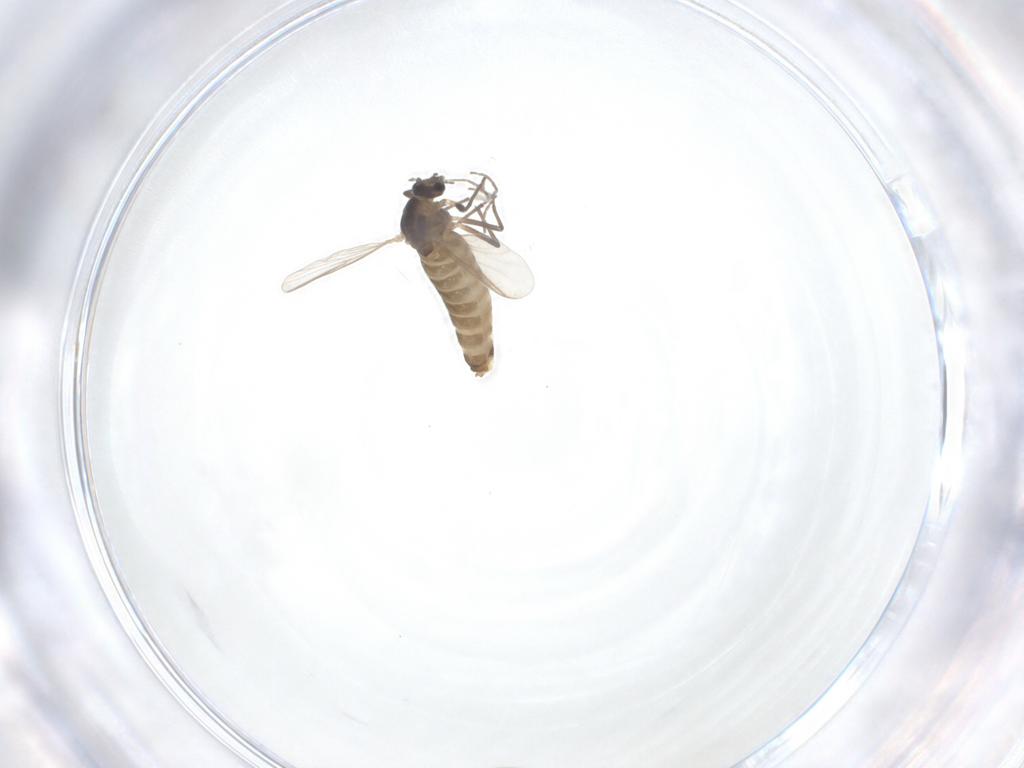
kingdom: Animalia
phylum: Arthropoda
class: Insecta
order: Diptera
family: Chironomidae
